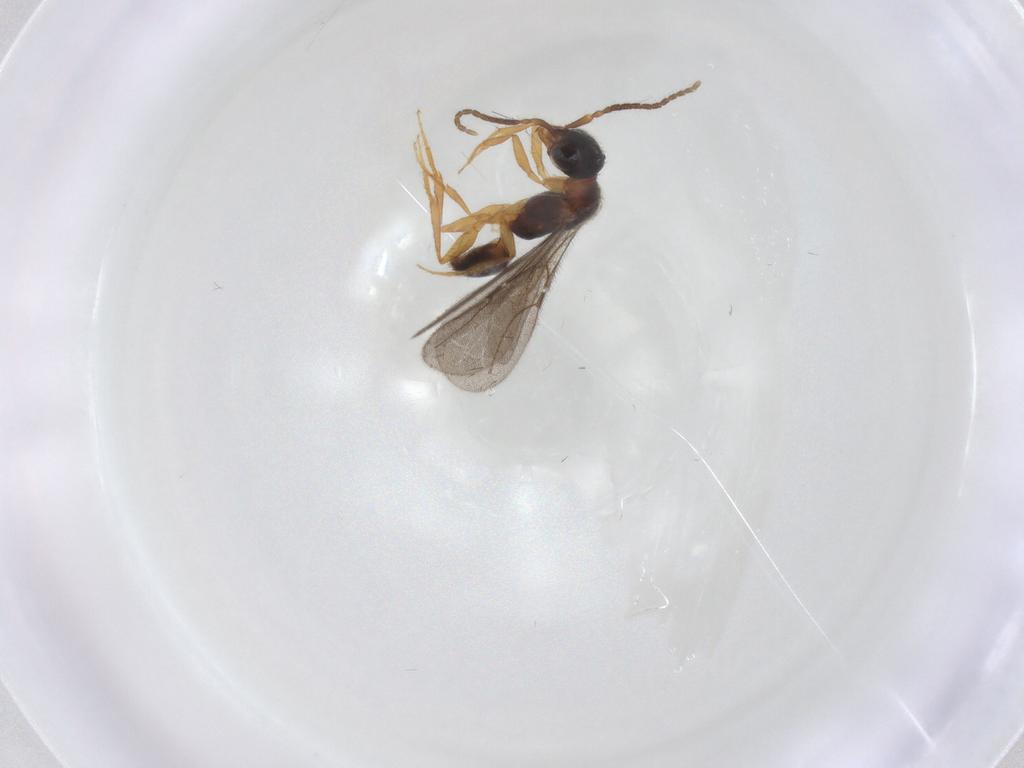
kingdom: Animalia
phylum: Arthropoda
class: Insecta
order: Hymenoptera
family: Bethylidae
